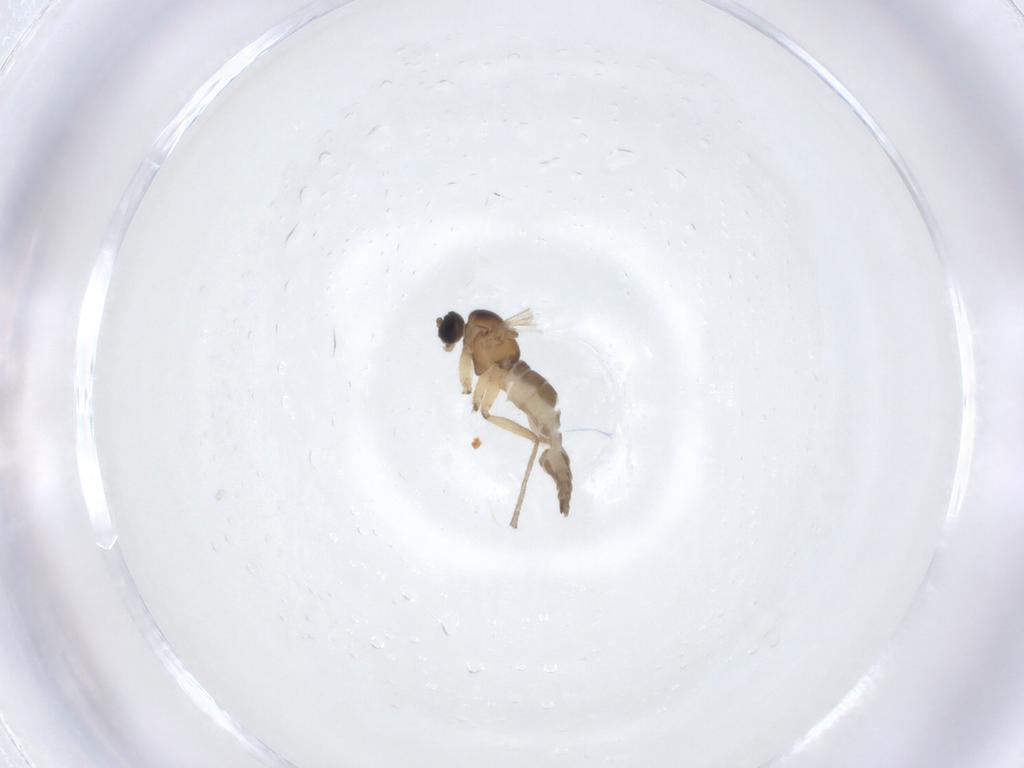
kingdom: Animalia
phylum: Arthropoda
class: Insecta
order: Diptera
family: Sciaridae
